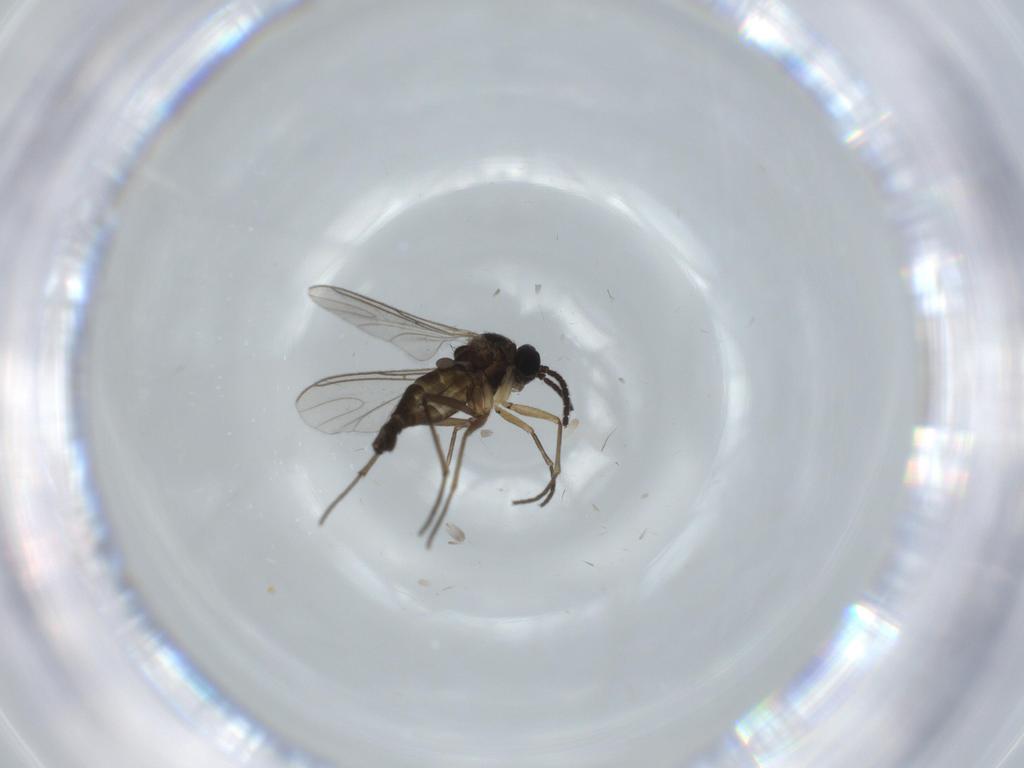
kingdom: Animalia
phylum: Arthropoda
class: Insecta
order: Diptera
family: Sciaridae
